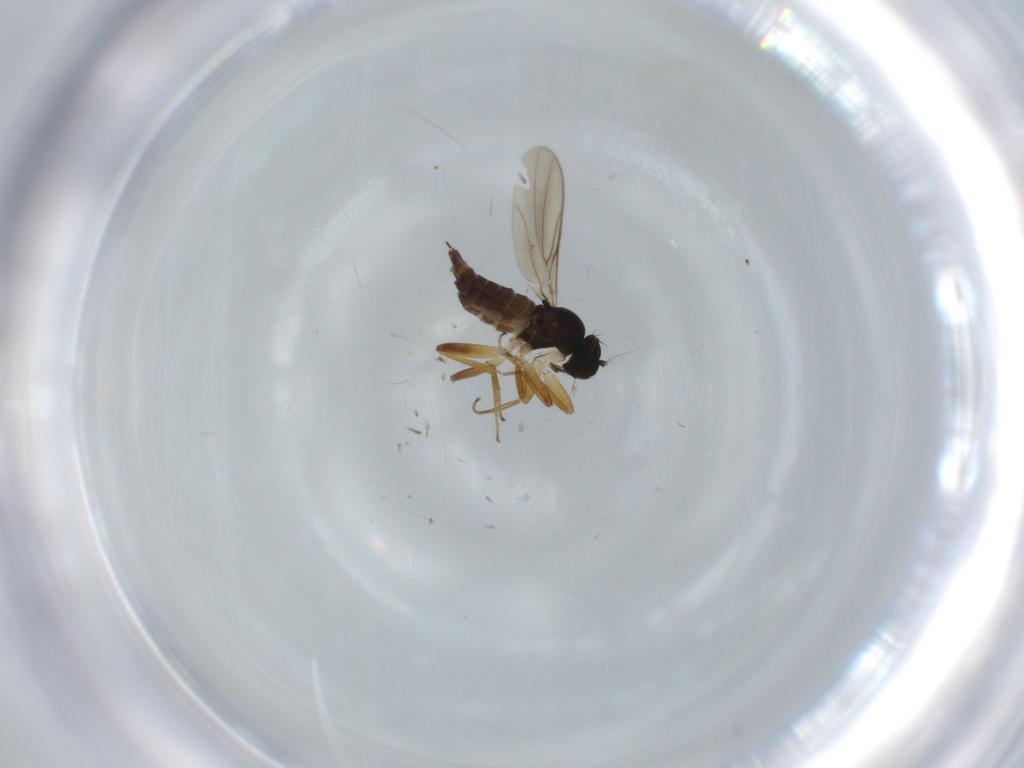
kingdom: Animalia
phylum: Arthropoda
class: Insecta
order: Diptera
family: Hybotidae
